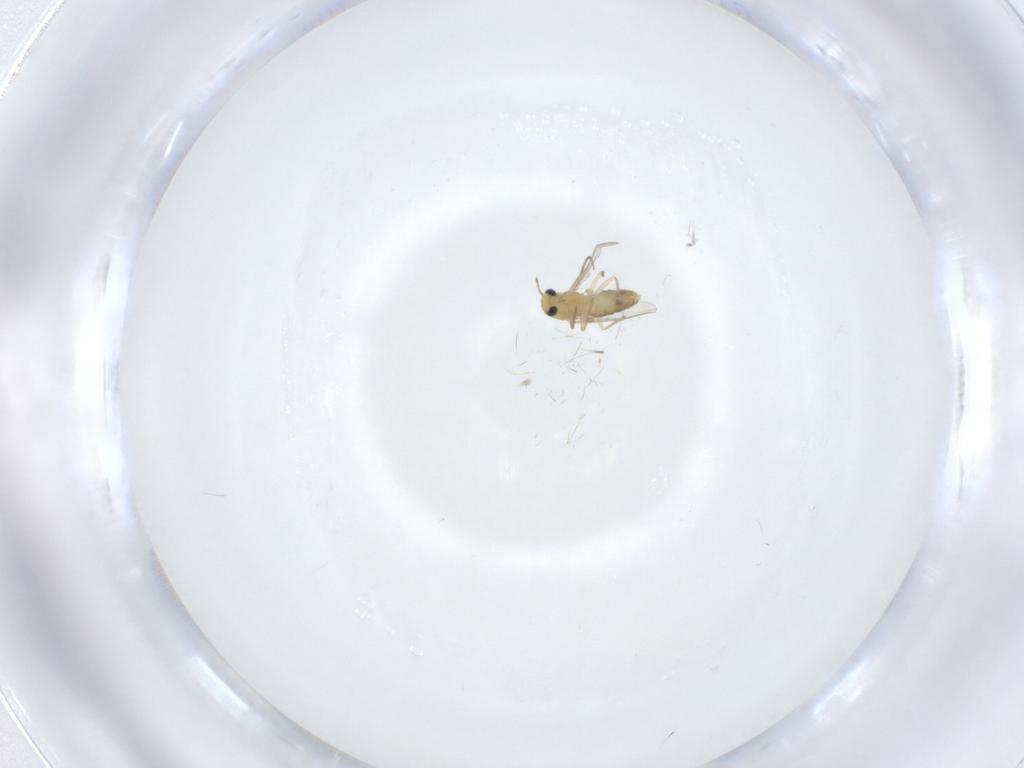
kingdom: Animalia
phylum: Arthropoda
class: Insecta
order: Diptera
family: Chironomidae
